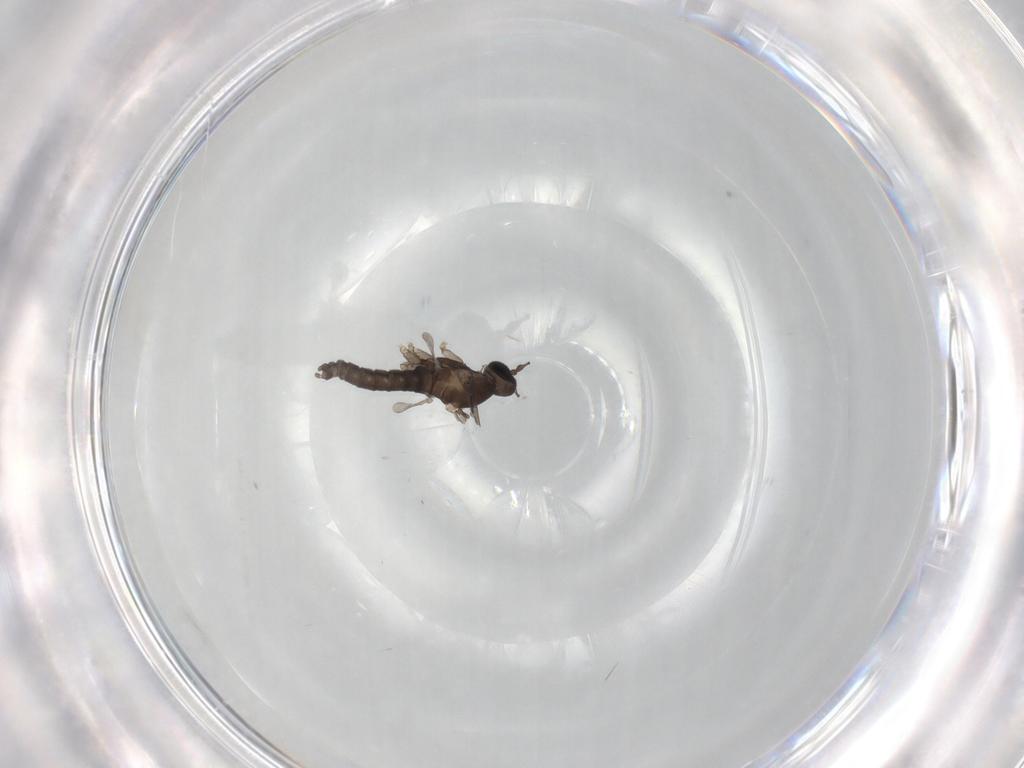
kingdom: Animalia
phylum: Arthropoda
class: Insecta
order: Diptera
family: Cecidomyiidae
